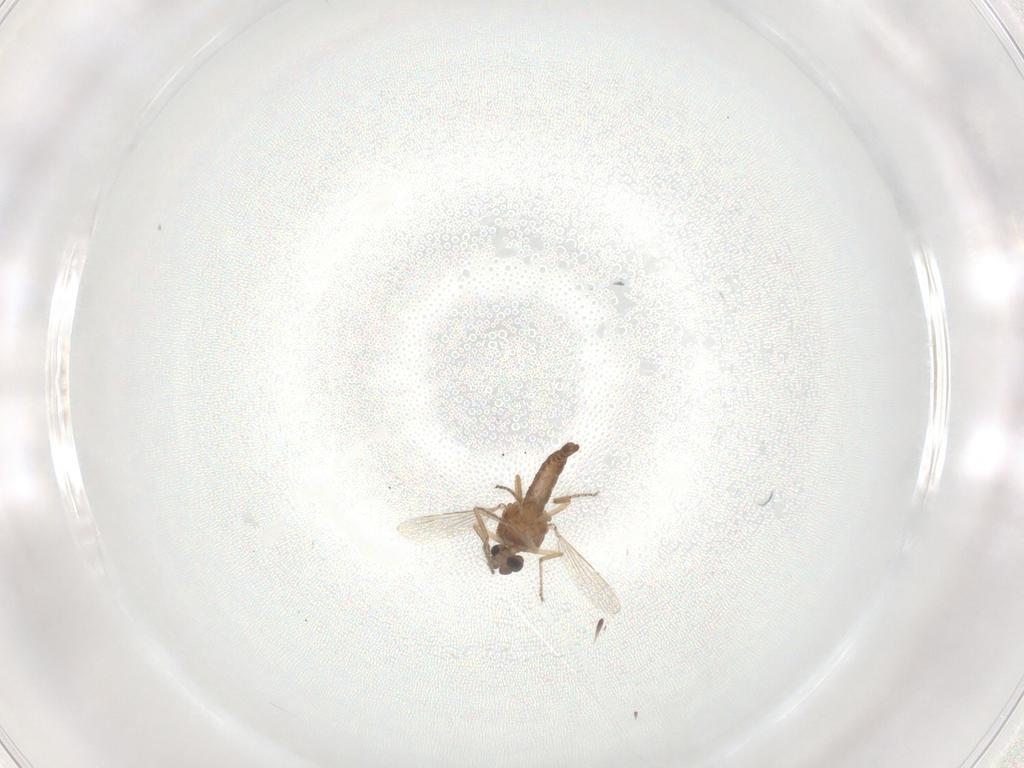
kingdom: Animalia
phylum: Arthropoda
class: Insecta
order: Diptera
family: Ceratopogonidae
